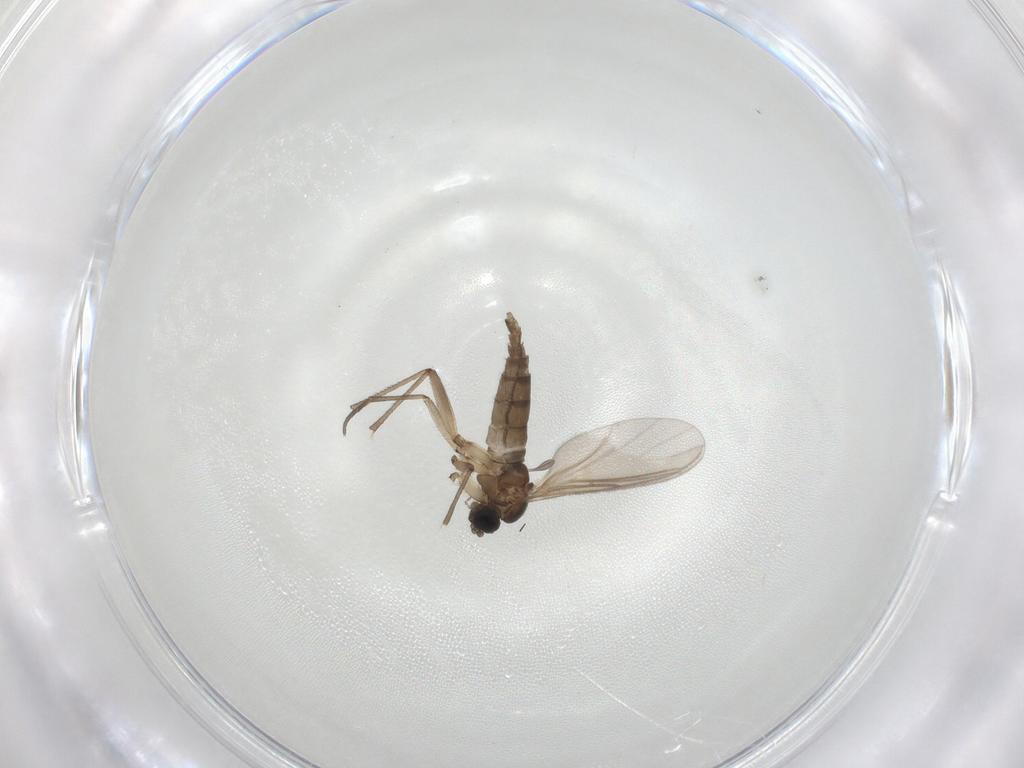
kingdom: Animalia
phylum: Arthropoda
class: Insecta
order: Diptera
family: Sciaridae
